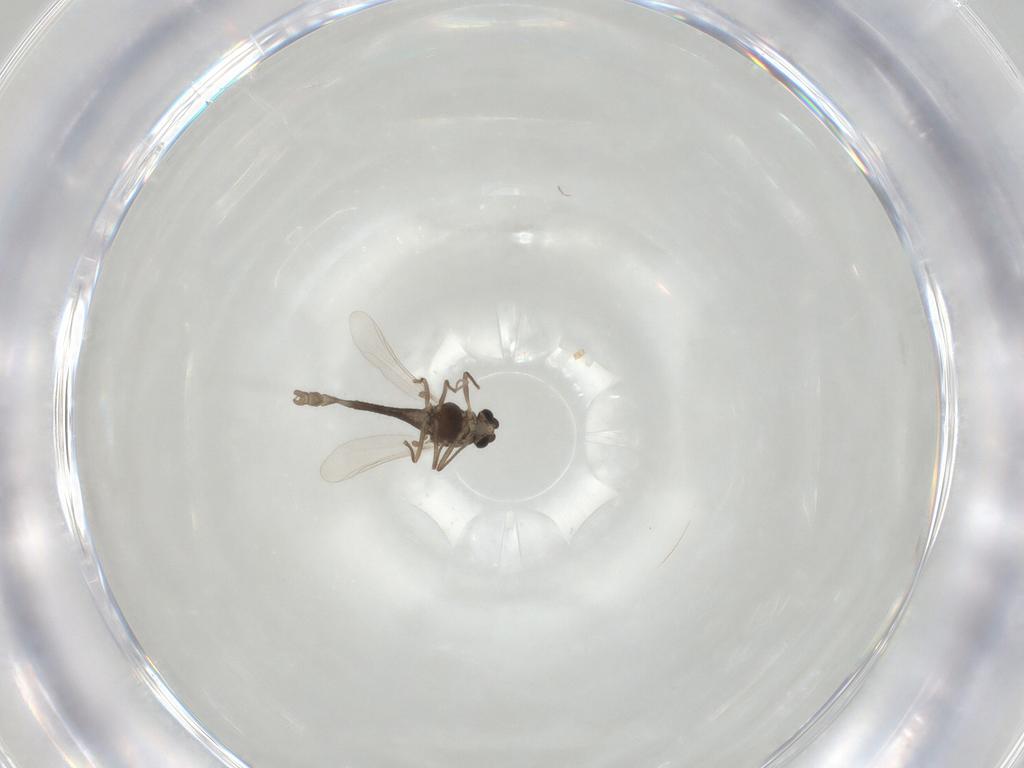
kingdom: Animalia
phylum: Arthropoda
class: Insecta
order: Diptera
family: Chironomidae
